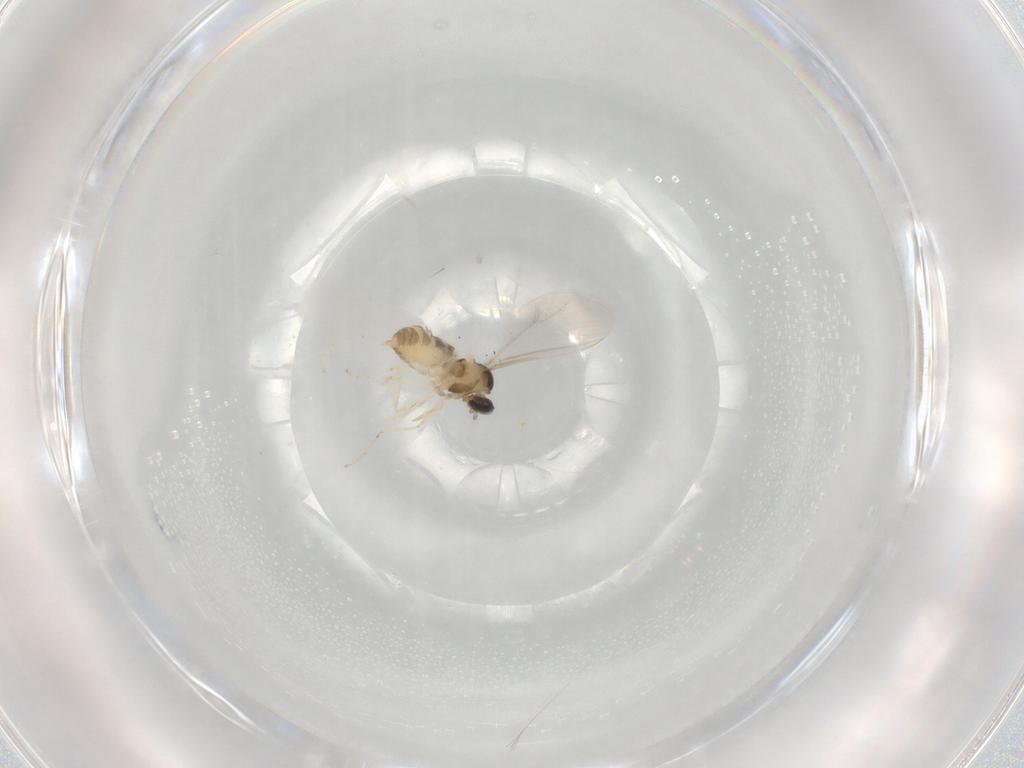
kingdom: Animalia
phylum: Arthropoda
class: Insecta
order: Diptera
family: Cecidomyiidae
